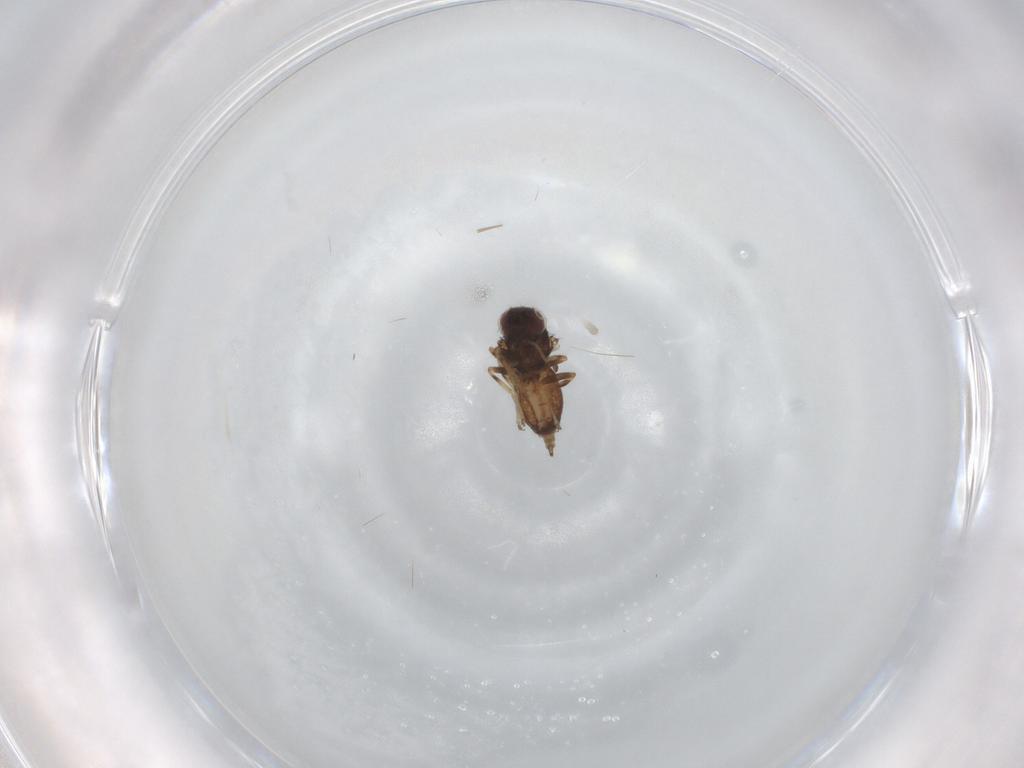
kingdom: Animalia
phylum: Arthropoda
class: Insecta
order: Diptera
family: Chloropidae
